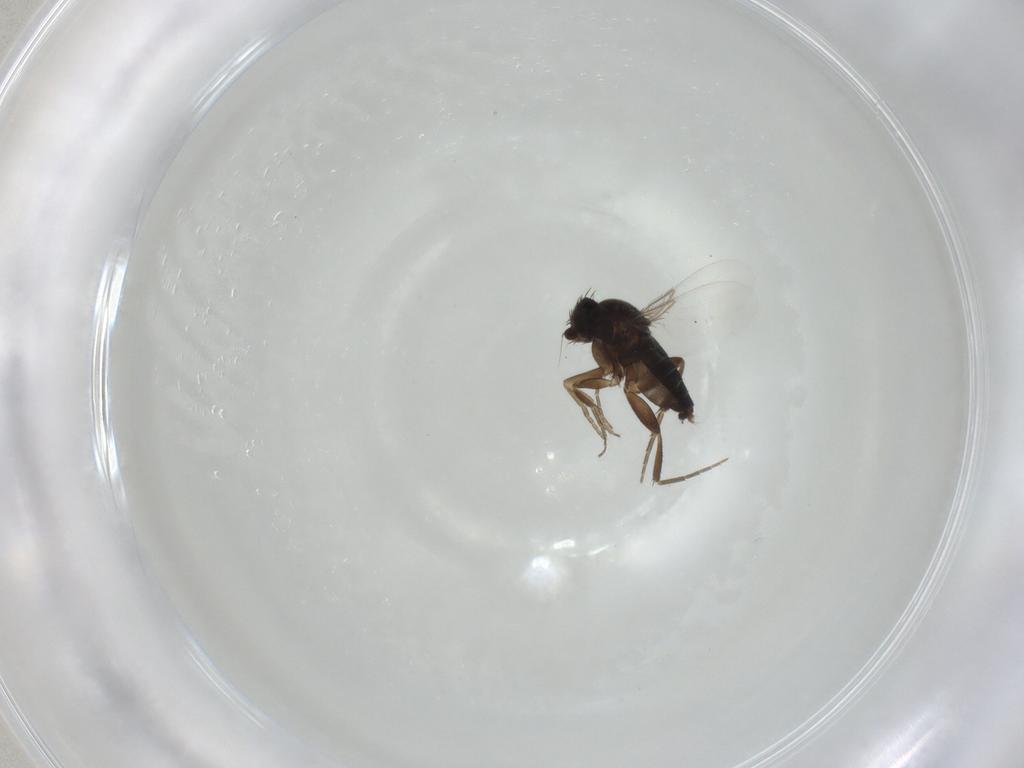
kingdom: Animalia
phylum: Arthropoda
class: Insecta
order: Diptera
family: Phoridae
